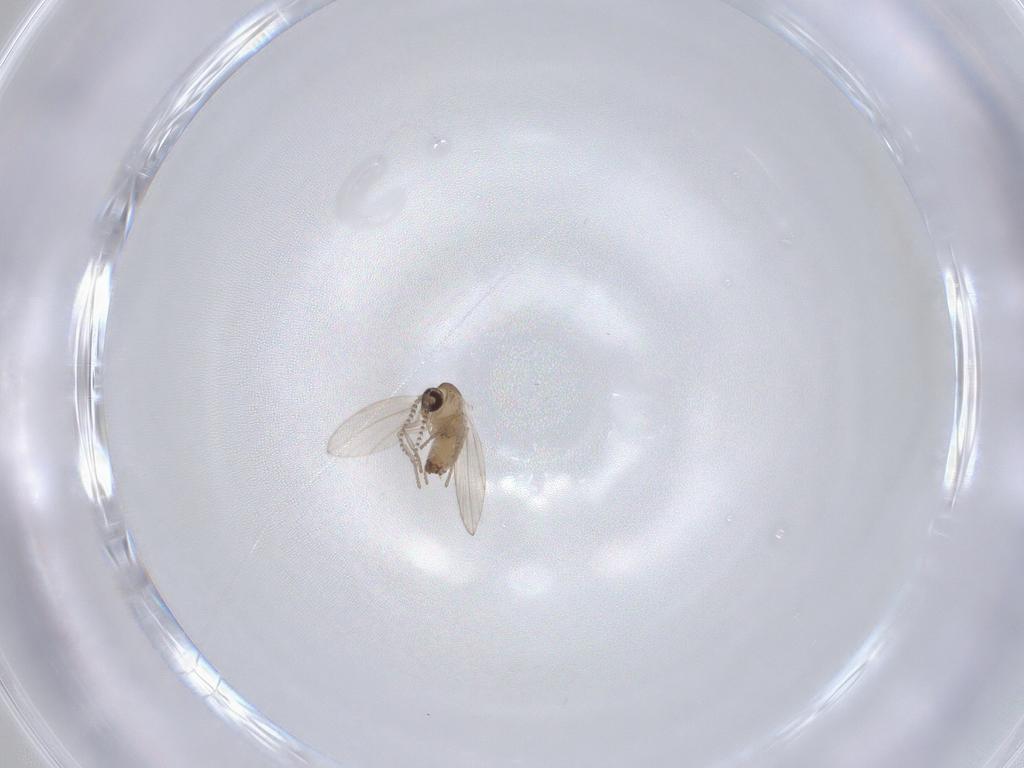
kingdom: Animalia
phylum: Arthropoda
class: Insecta
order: Diptera
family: Psychodidae
